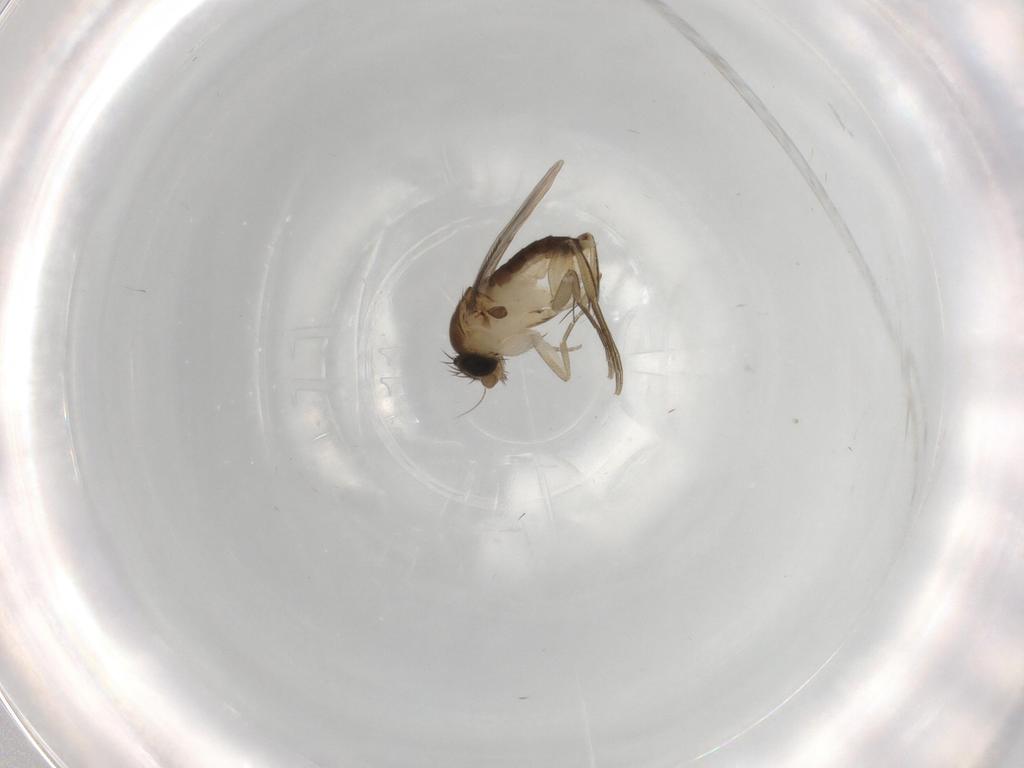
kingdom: Animalia
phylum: Arthropoda
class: Insecta
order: Diptera
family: Phoridae
